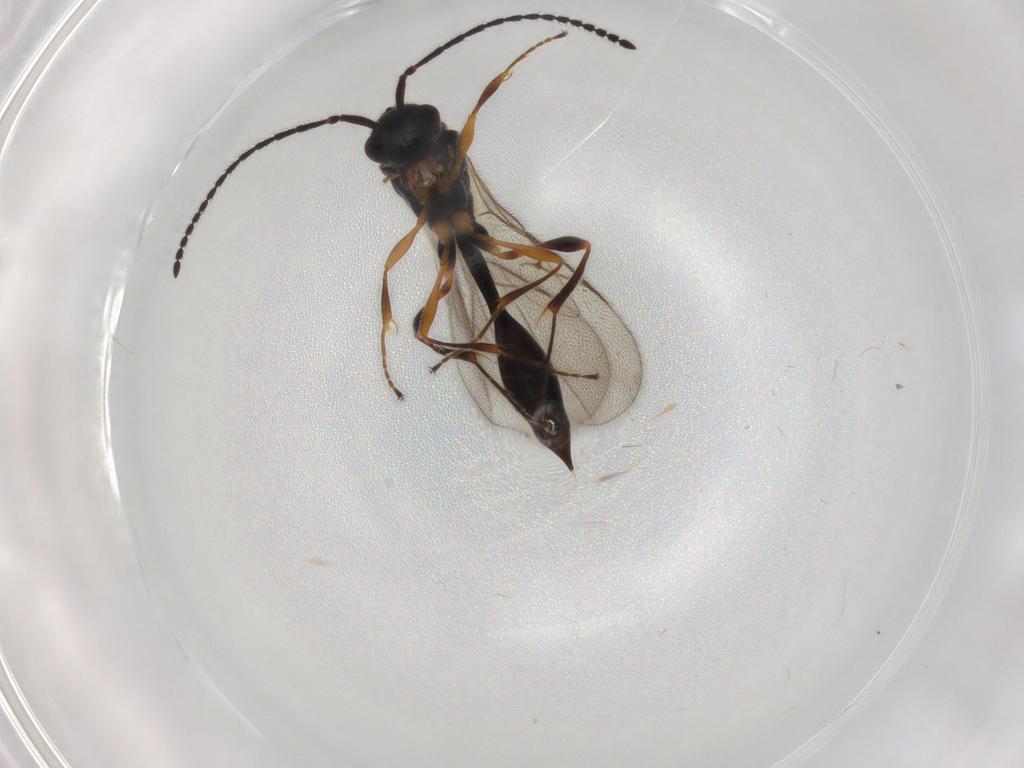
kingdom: Animalia
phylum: Arthropoda
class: Insecta
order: Hymenoptera
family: Diapriidae
